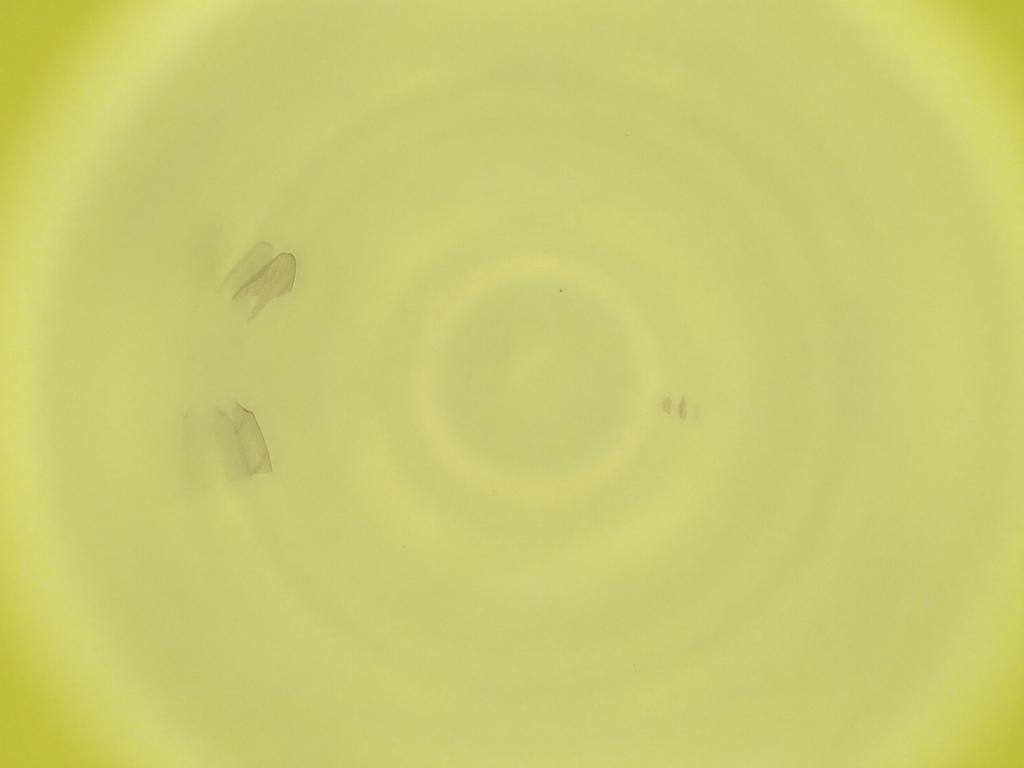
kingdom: Animalia
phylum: Arthropoda
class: Insecta
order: Diptera
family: Cecidomyiidae
